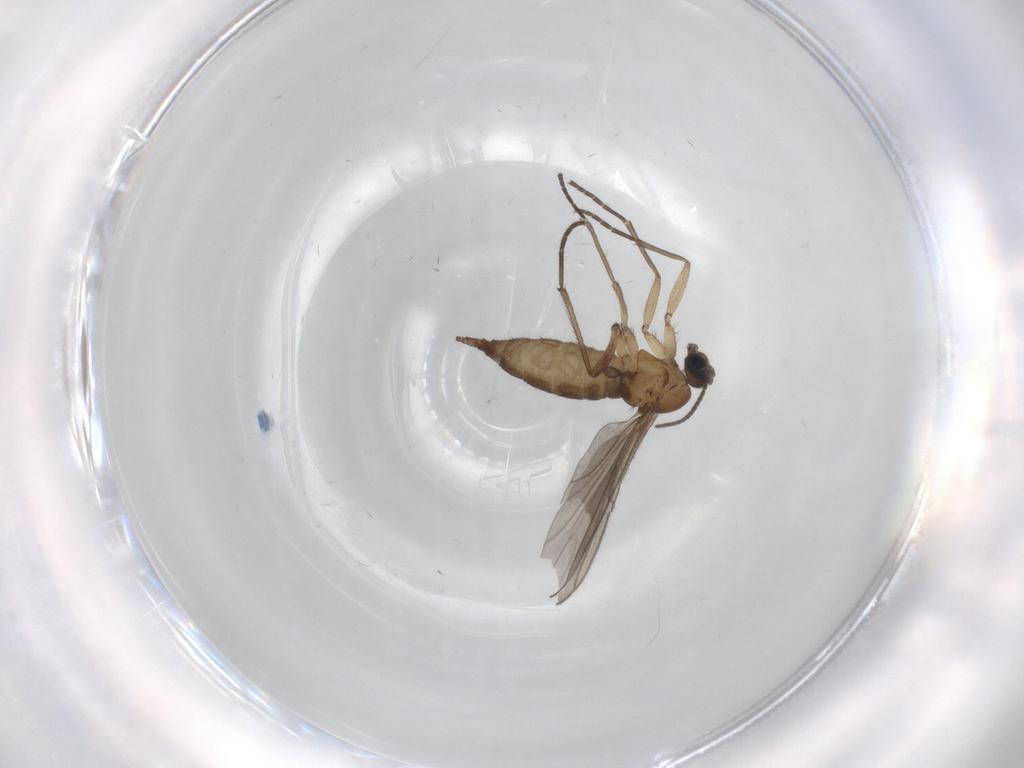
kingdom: Animalia
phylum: Arthropoda
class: Insecta
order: Diptera
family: Sciaridae
